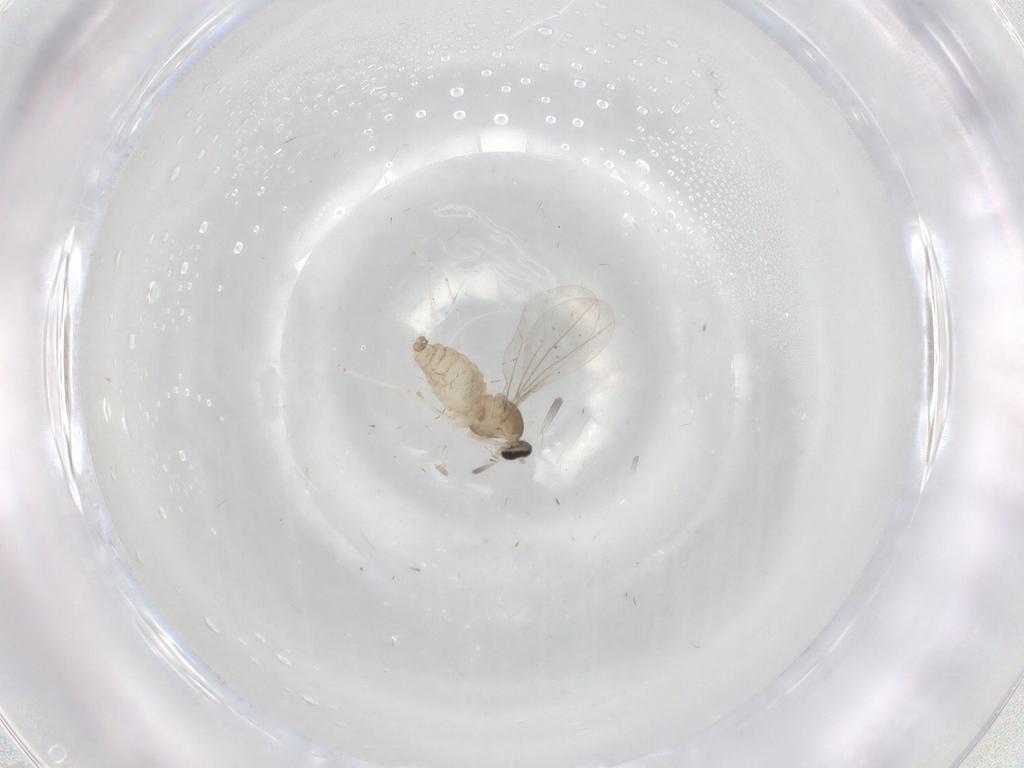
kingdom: Animalia
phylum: Arthropoda
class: Insecta
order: Diptera
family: Cecidomyiidae
